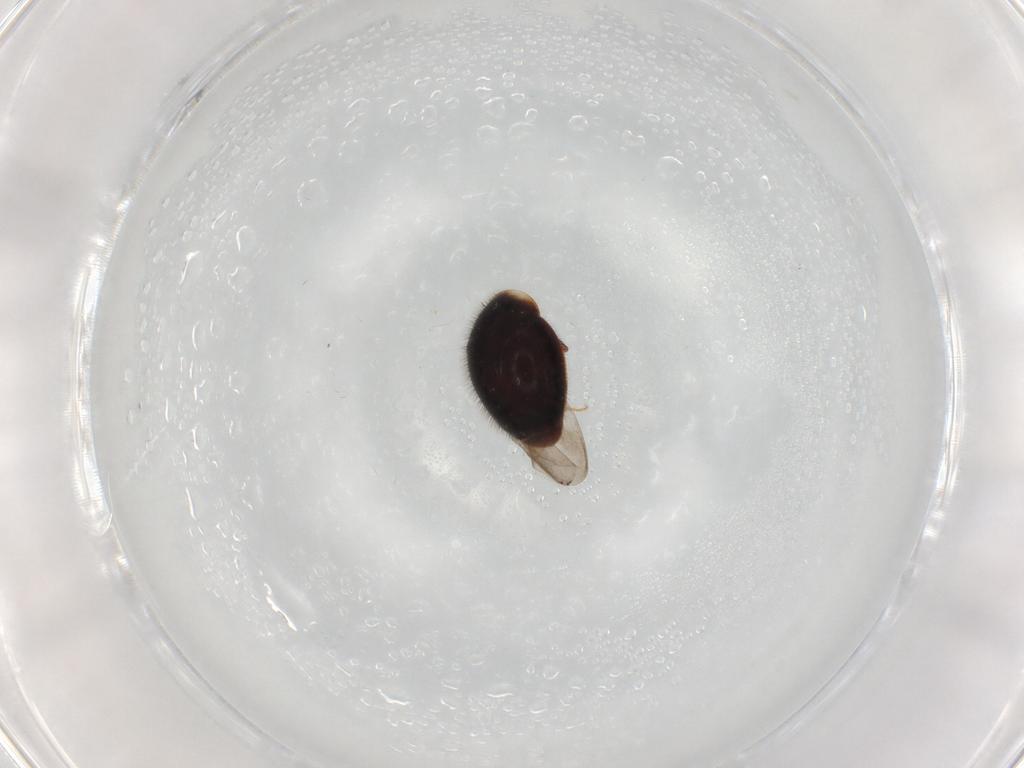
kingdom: Animalia
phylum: Arthropoda
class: Insecta
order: Coleoptera
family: Corylophidae
